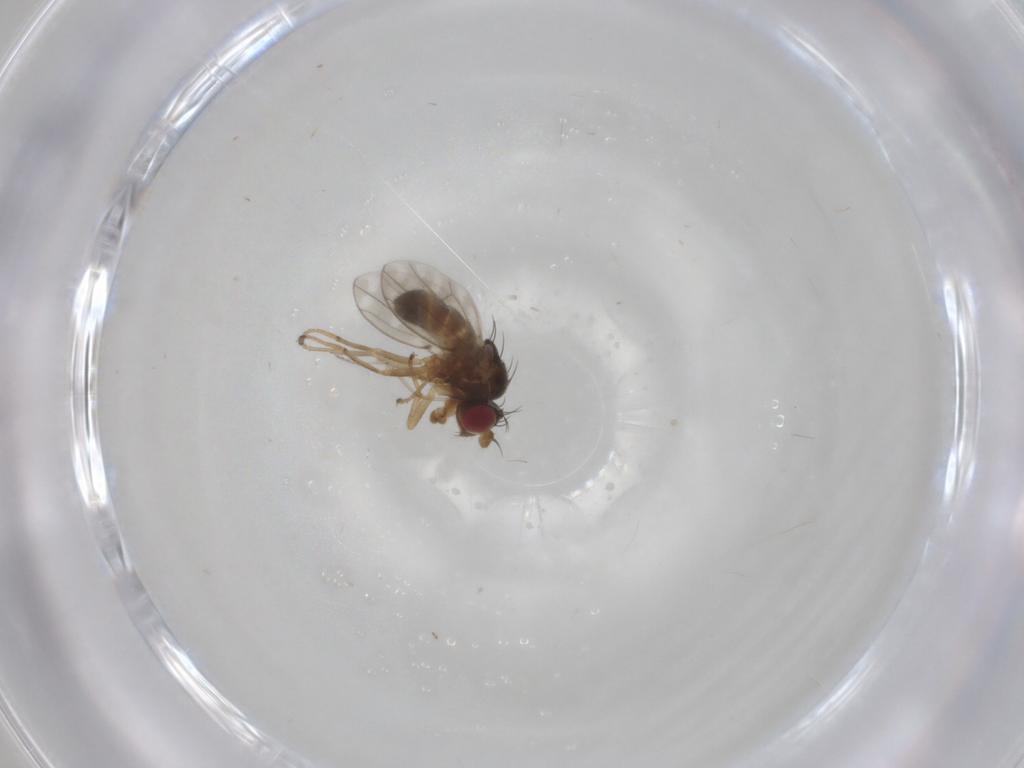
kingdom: Animalia
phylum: Arthropoda
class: Insecta
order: Diptera
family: Ephydridae
